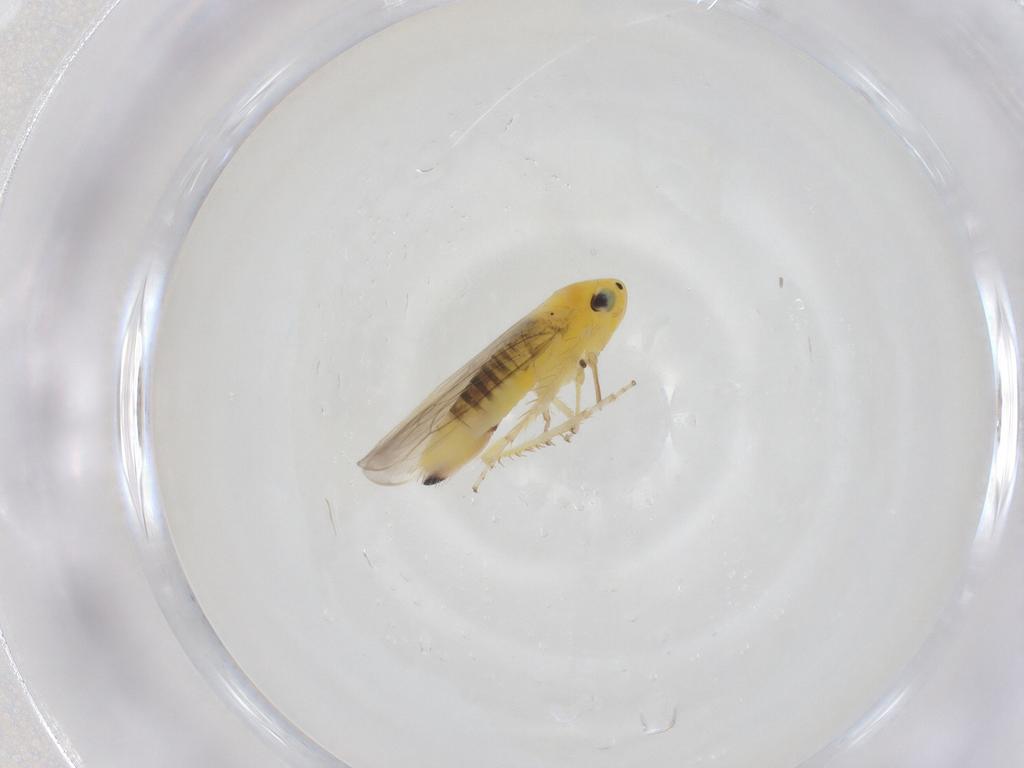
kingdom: Animalia
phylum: Arthropoda
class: Insecta
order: Hemiptera
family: Cicadellidae
